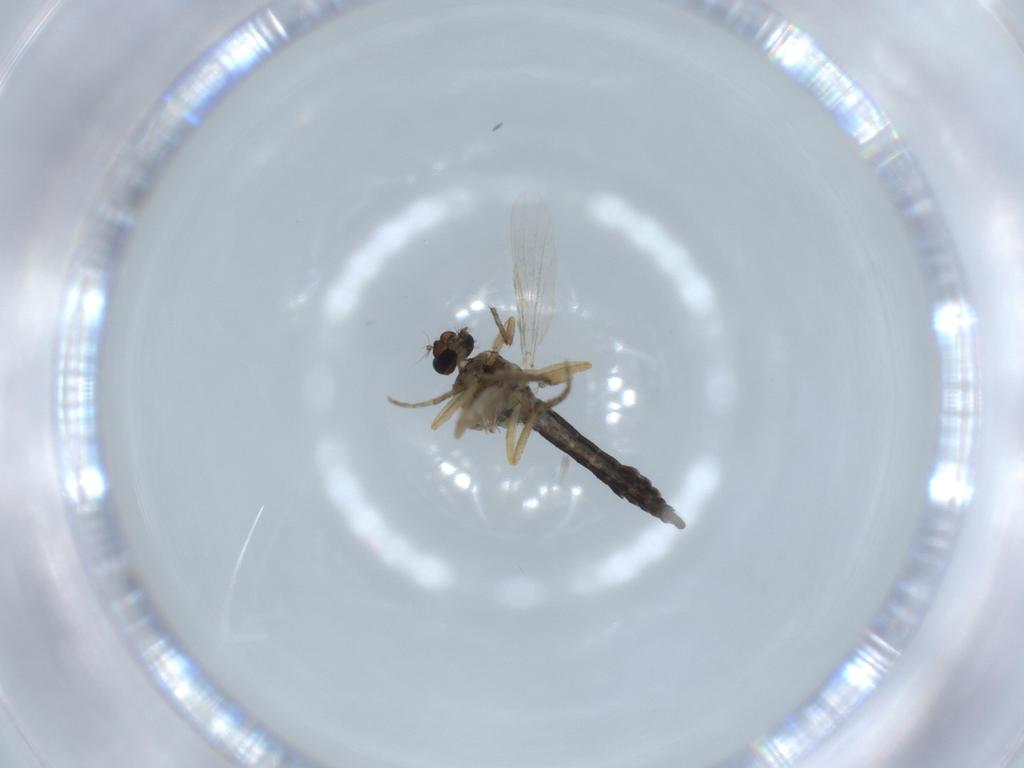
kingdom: Animalia
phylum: Arthropoda
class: Insecta
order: Diptera
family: Ceratopogonidae
